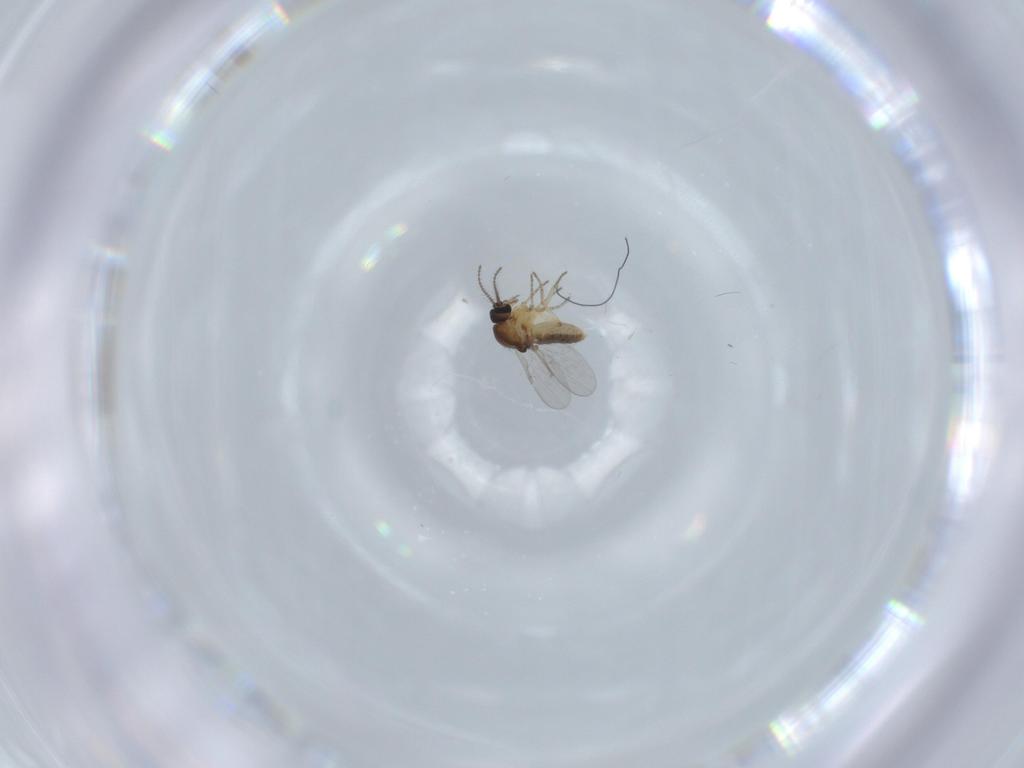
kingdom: Animalia
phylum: Arthropoda
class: Insecta
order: Diptera
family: Ceratopogonidae
